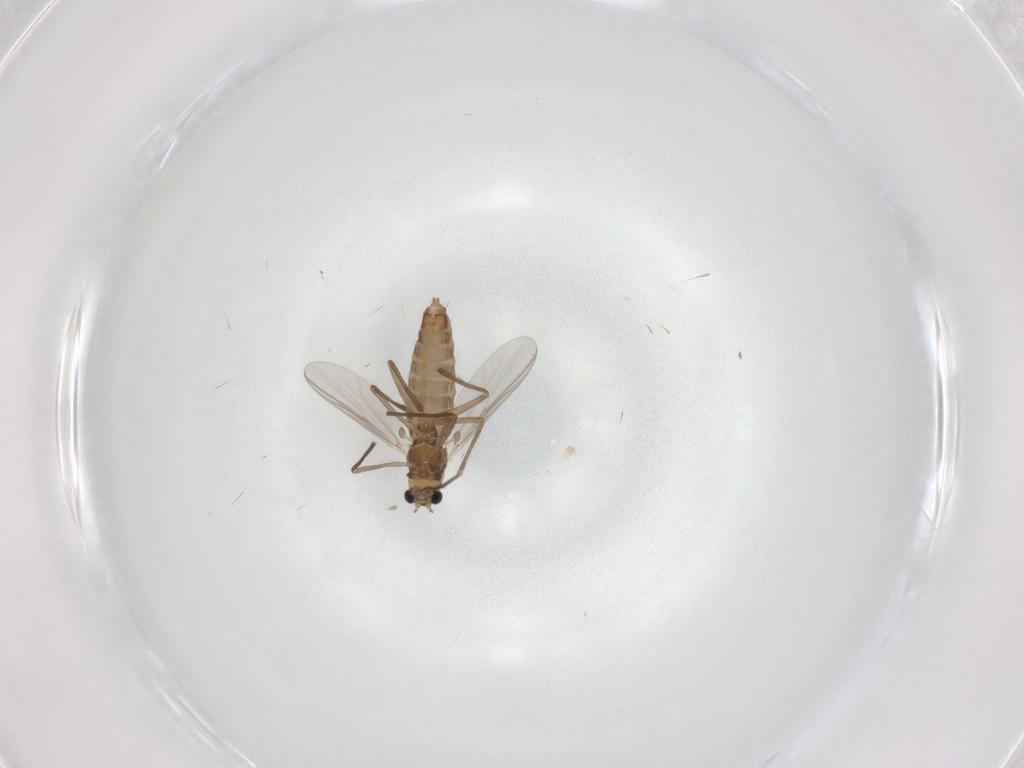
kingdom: Animalia
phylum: Arthropoda
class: Insecta
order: Diptera
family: Chironomidae
